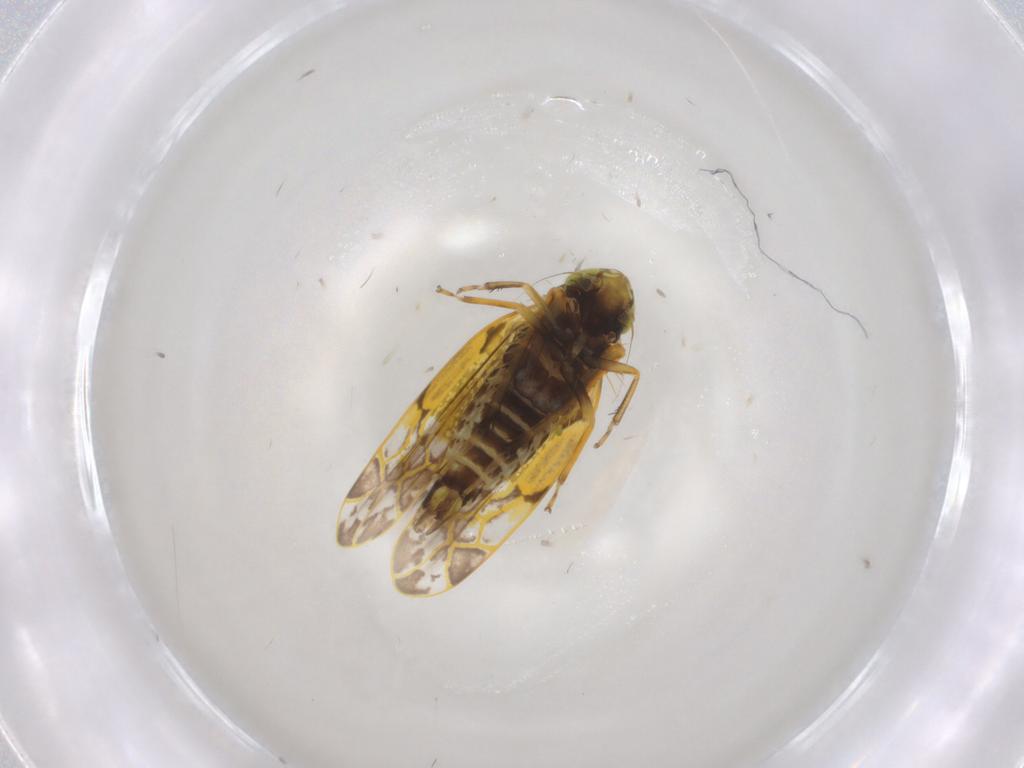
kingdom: Animalia
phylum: Arthropoda
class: Insecta
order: Hemiptera
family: Cicadellidae
